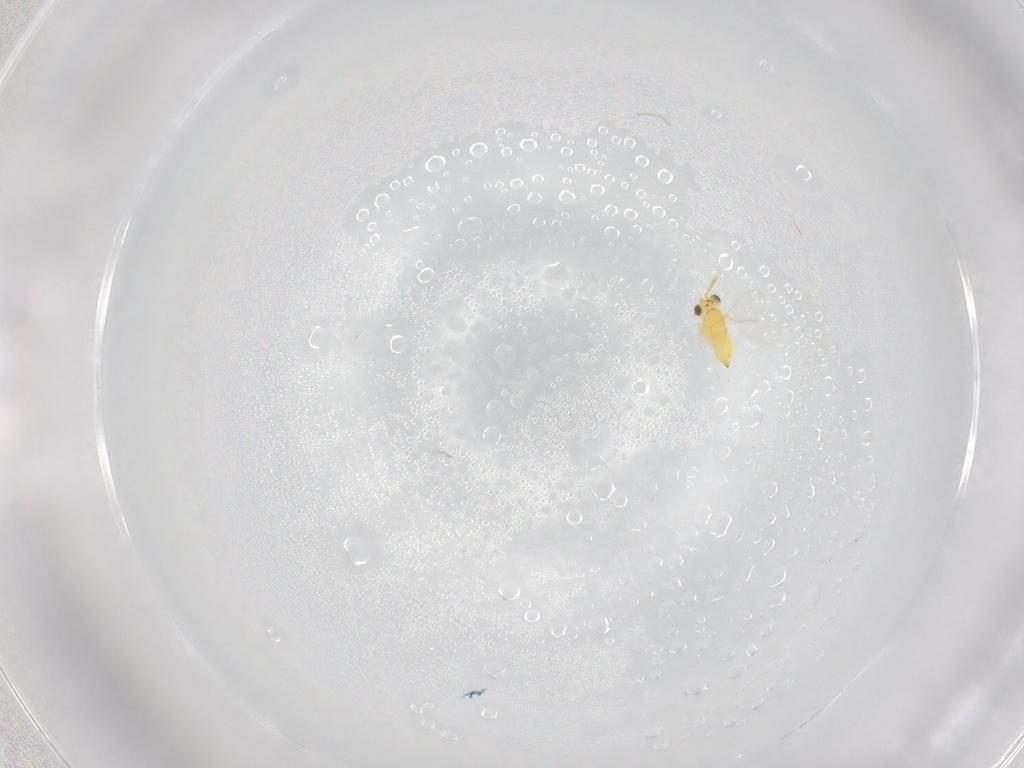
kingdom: Animalia
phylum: Arthropoda
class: Insecta
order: Hymenoptera
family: Aphelinidae
